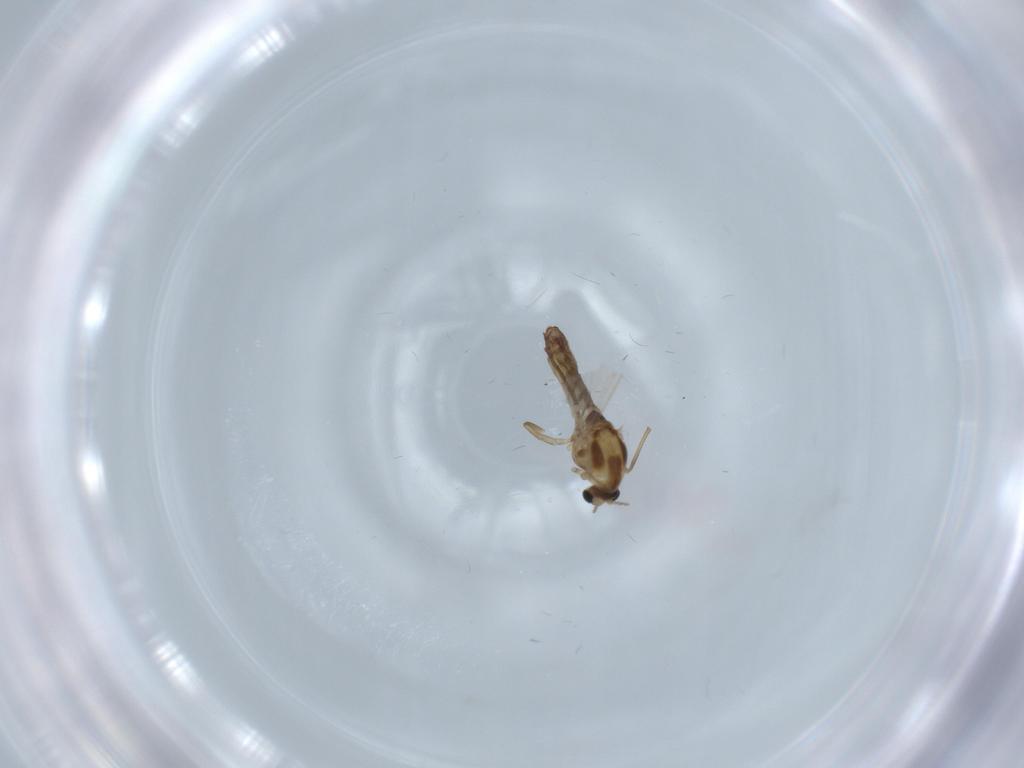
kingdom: Animalia
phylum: Arthropoda
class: Insecta
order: Diptera
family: Chironomidae
